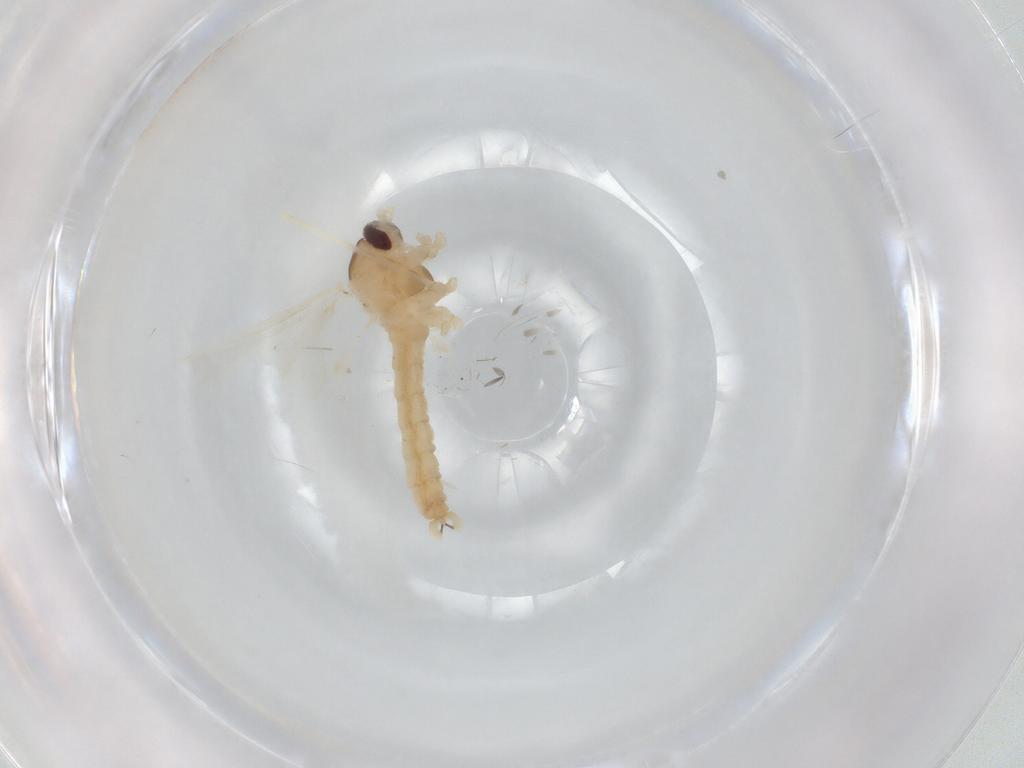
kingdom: Animalia
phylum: Arthropoda
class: Insecta
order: Diptera
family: Cecidomyiidae
